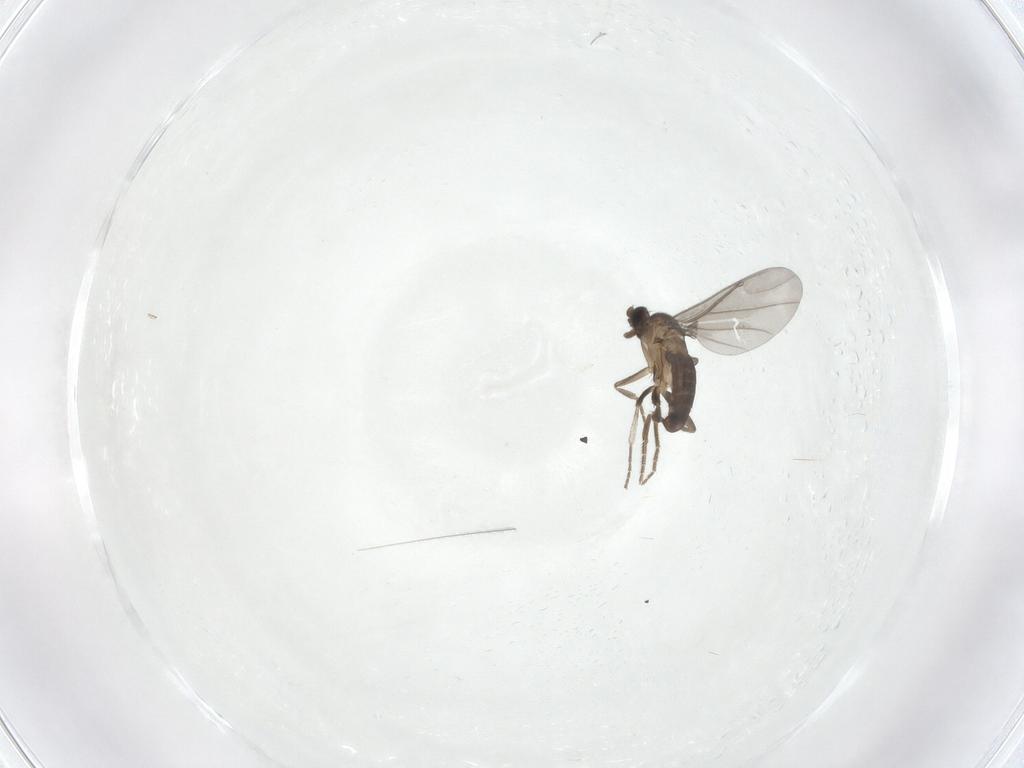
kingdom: Animalia
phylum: Arthropoda
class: Insecta
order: Diptera
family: Phoridae
